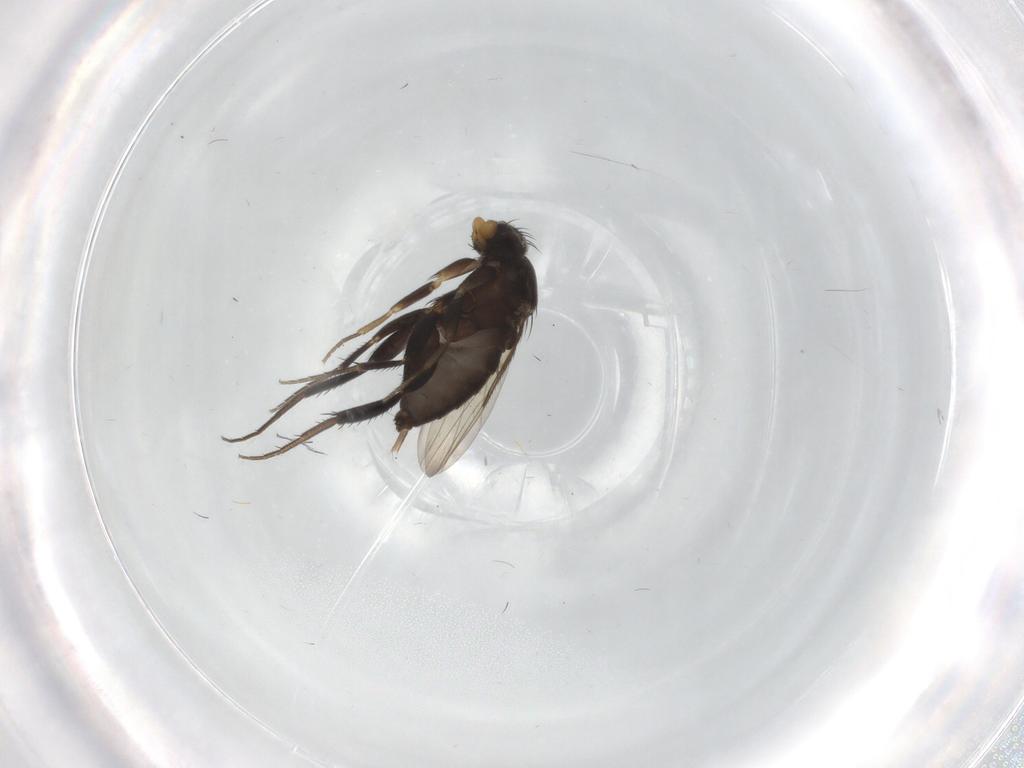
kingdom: Animalia
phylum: Arthropoda
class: Insecta
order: Diptera
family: Phoridae
